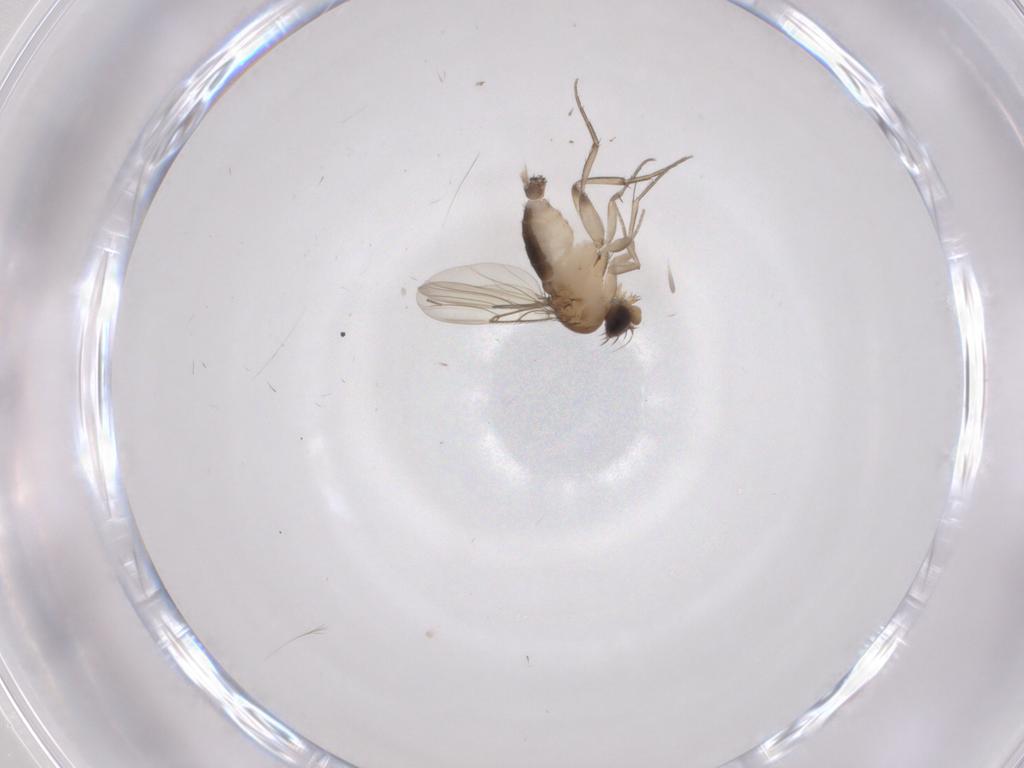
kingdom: Animalia
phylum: Arthropoda
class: Insecta
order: Diptera
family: Phoridae
